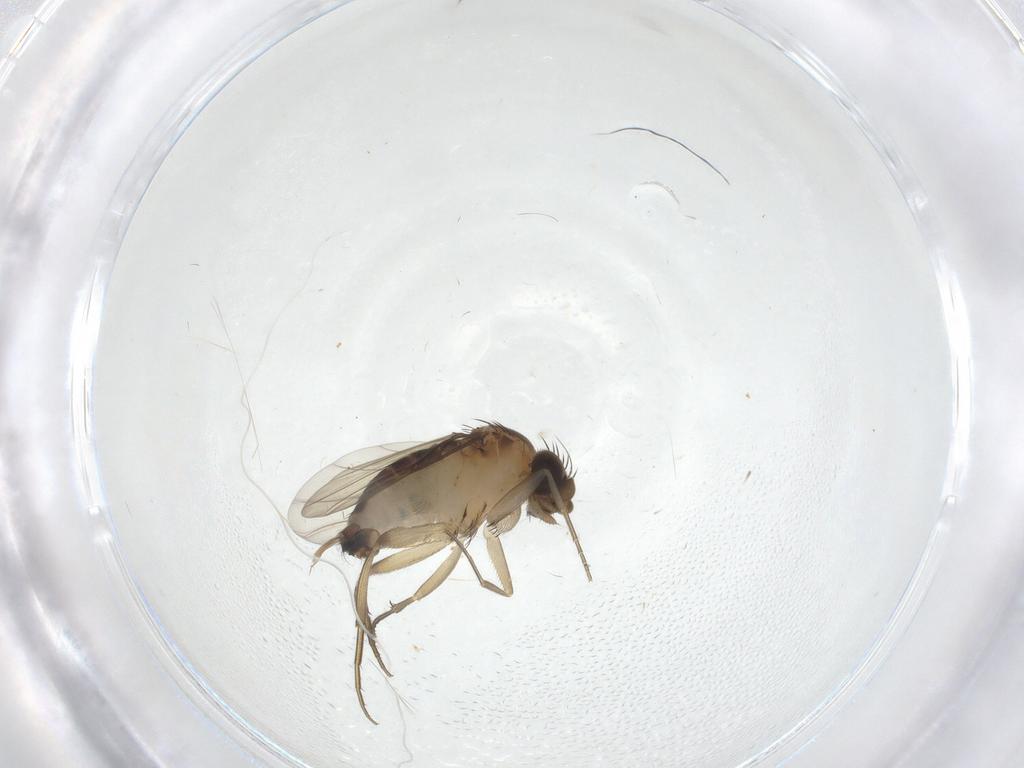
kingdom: Animalia
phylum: Arthropoda
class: Insecta
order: Diptera
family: Phoridae
